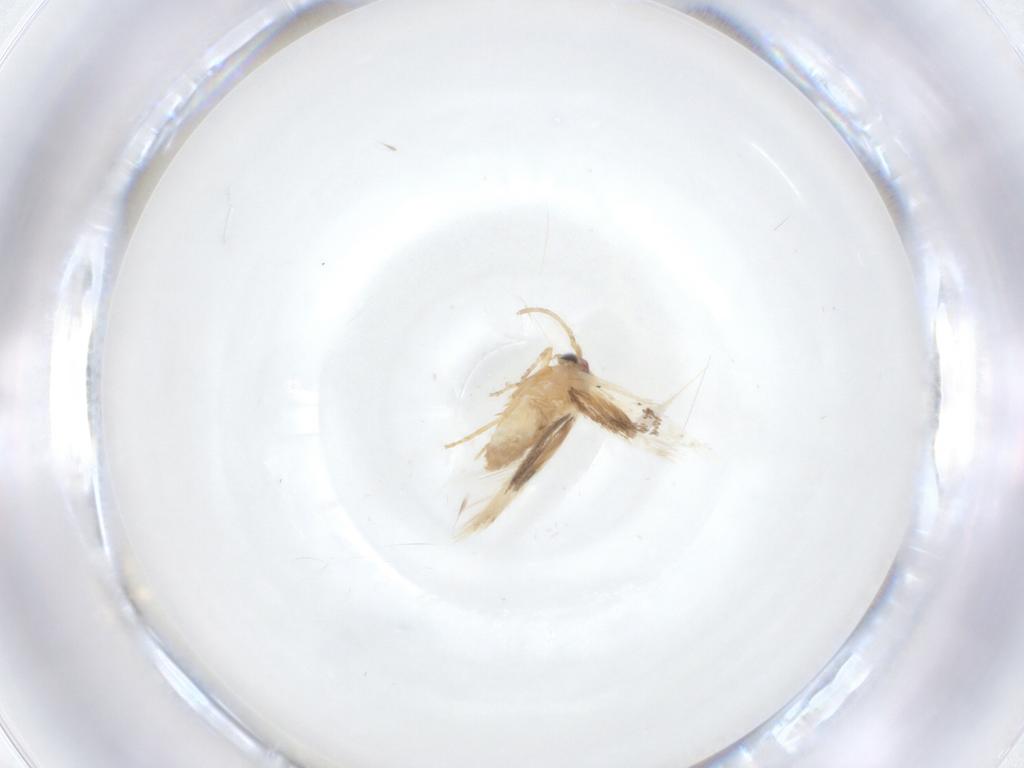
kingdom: Animalia
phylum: Arthropoda
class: Insecta
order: Lepidoptera
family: Nepticulidae
